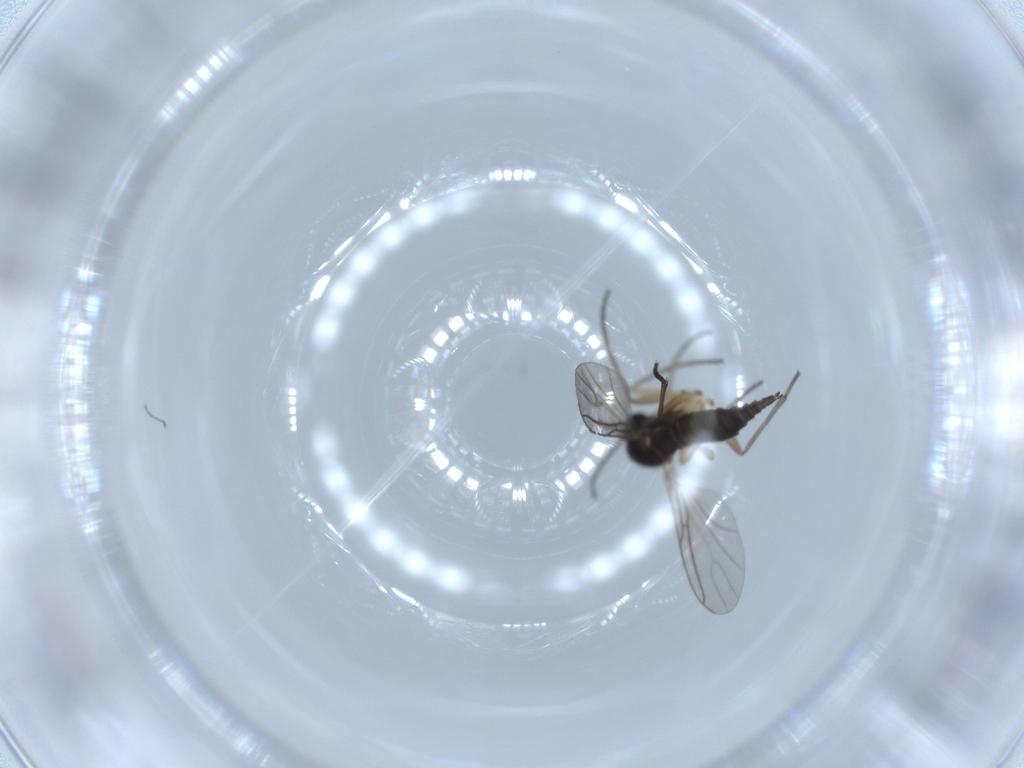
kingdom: Animalia
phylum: Arthropoda
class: Insecta
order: Diptera
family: Sciaridae
